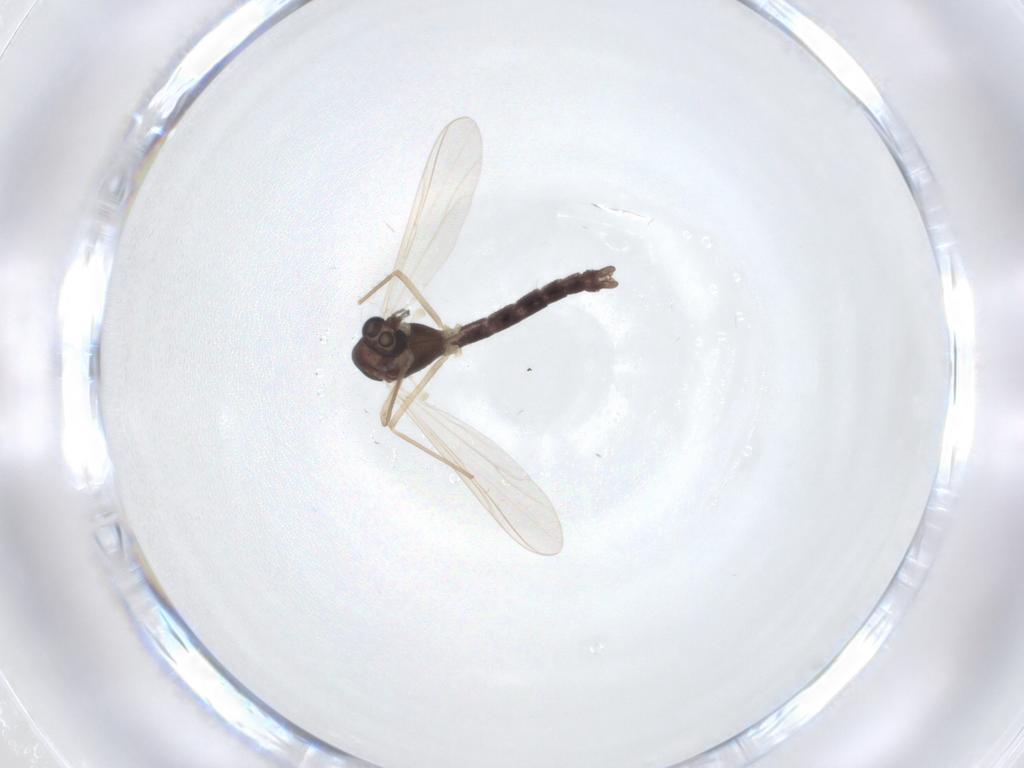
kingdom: Animalia
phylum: Arthropoda
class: Insecta
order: Diptera
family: Chironomidae
